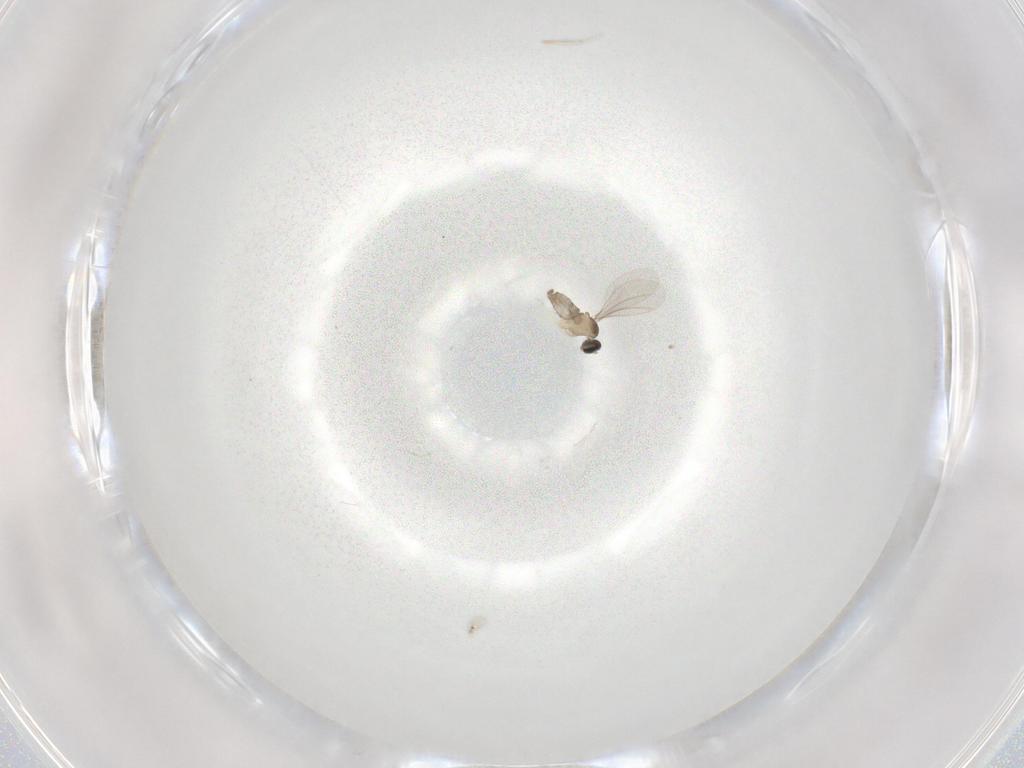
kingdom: Animalia
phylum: Arthropoda
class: Insecta
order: Diptera
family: Cecidomyiidae
